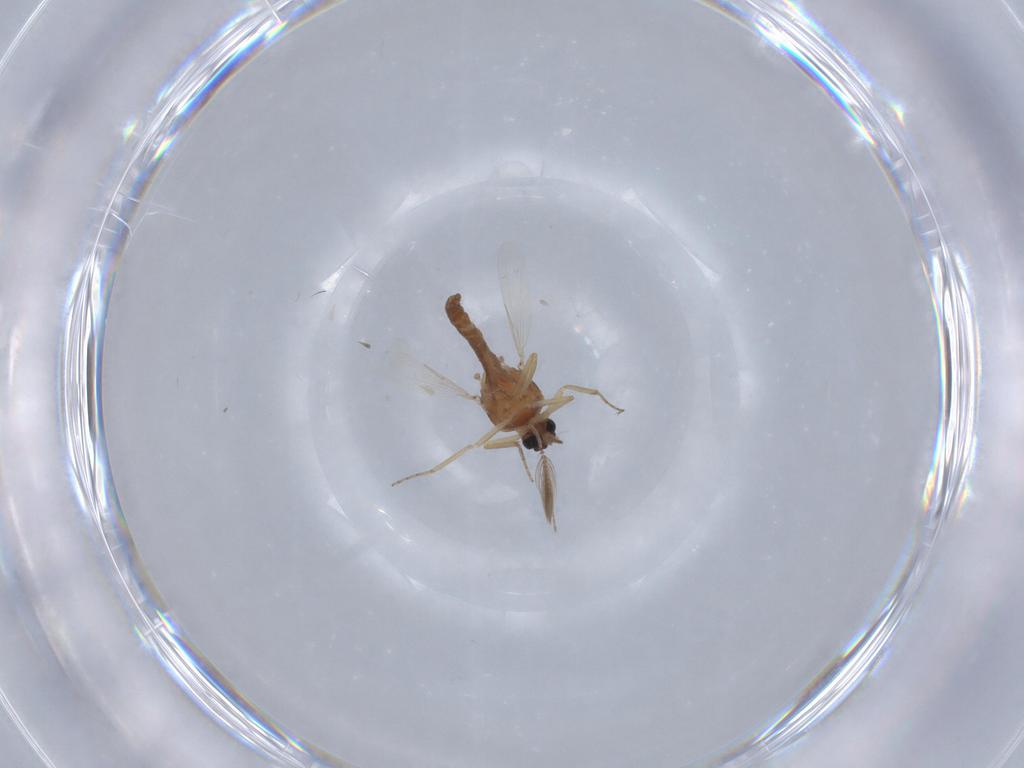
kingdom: Animalia
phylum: Arthropoda
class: Insecta
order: Diptera
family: Ceratopogonidae
